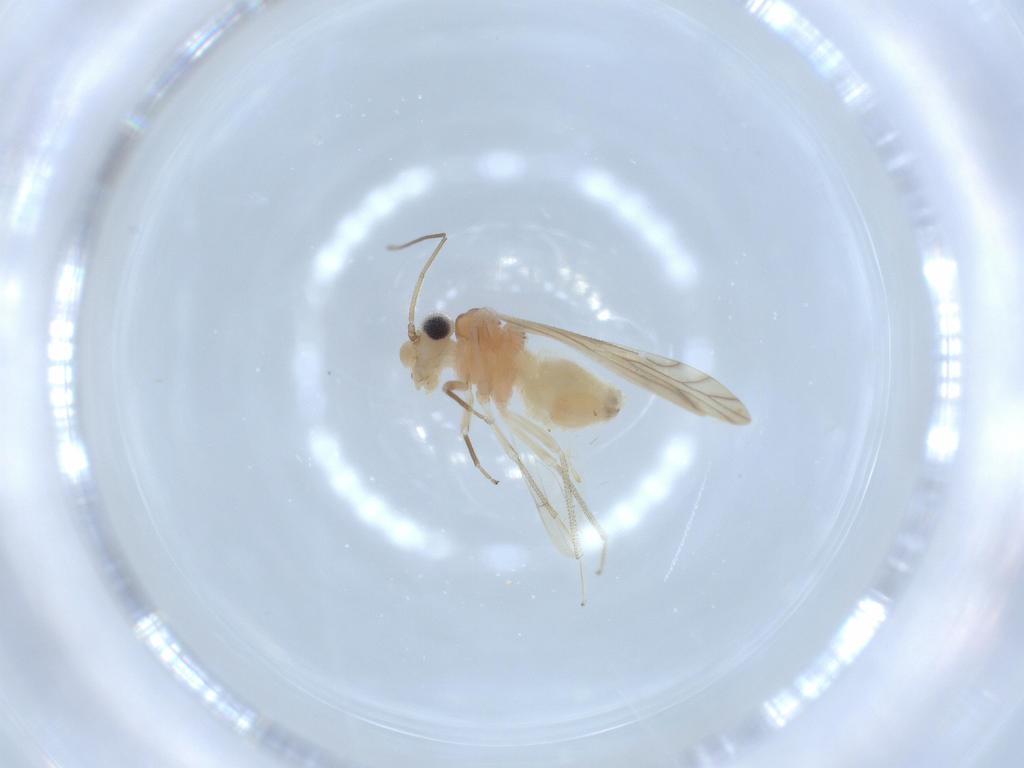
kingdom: Animalia
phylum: Arthropoda
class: Insecta
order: Psocodea
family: Caeciliusidae
